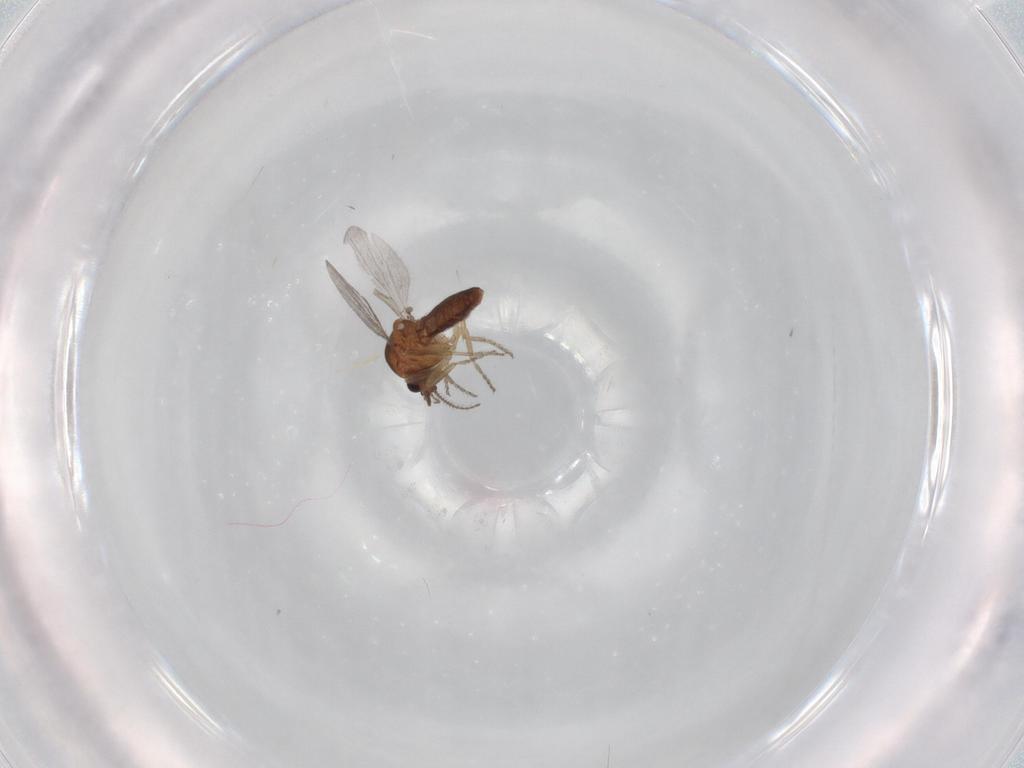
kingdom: Animalia
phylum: Arthropoda
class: Insecta
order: Diptera
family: Ceratopogonidae
